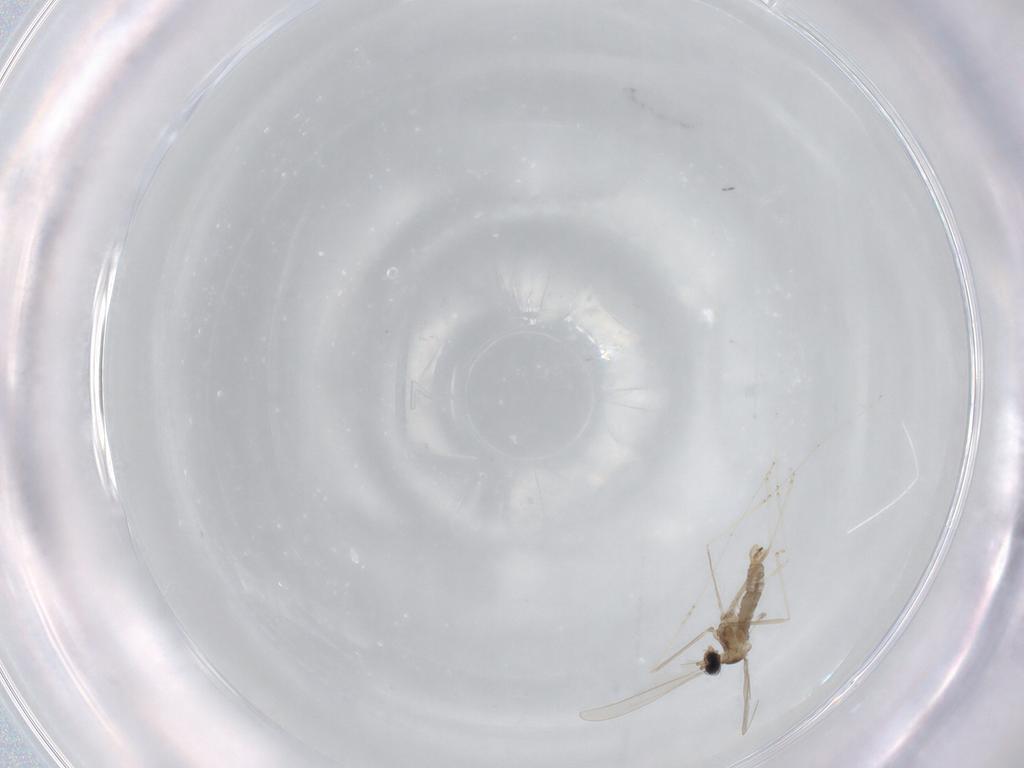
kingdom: Animalia
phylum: Arthropoda
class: Insecta
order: Diptera
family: Cecidomyiidae
